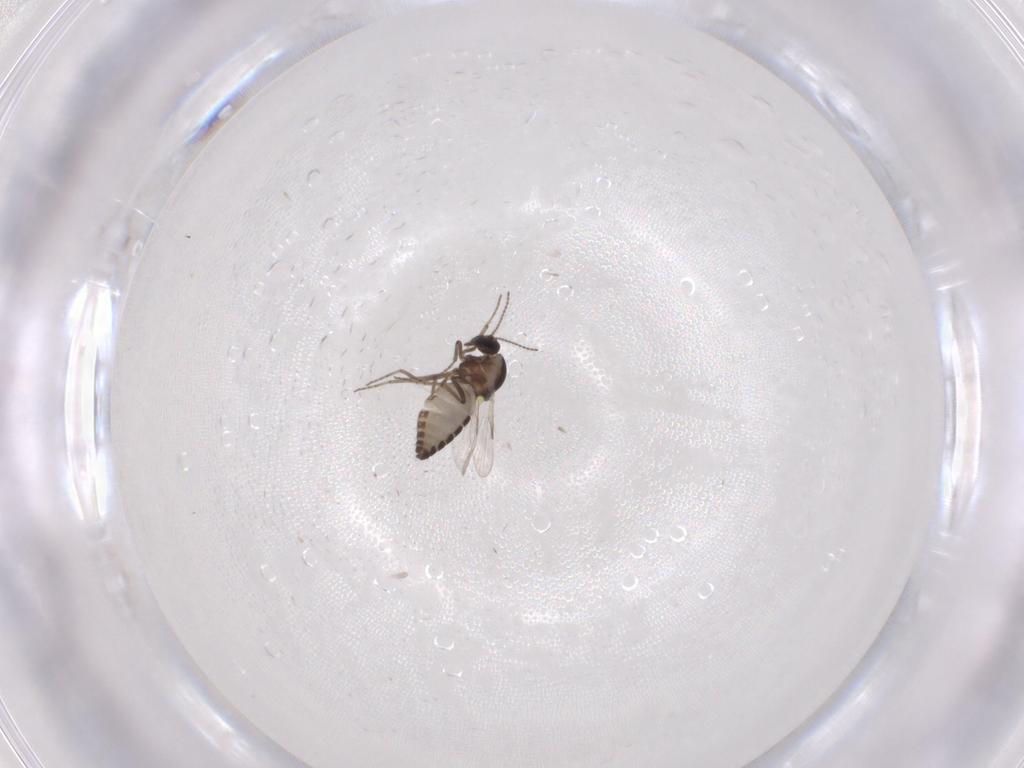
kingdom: Animalia
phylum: Arthropoda
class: Insecta
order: Diptera
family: Ceratopogonidae
